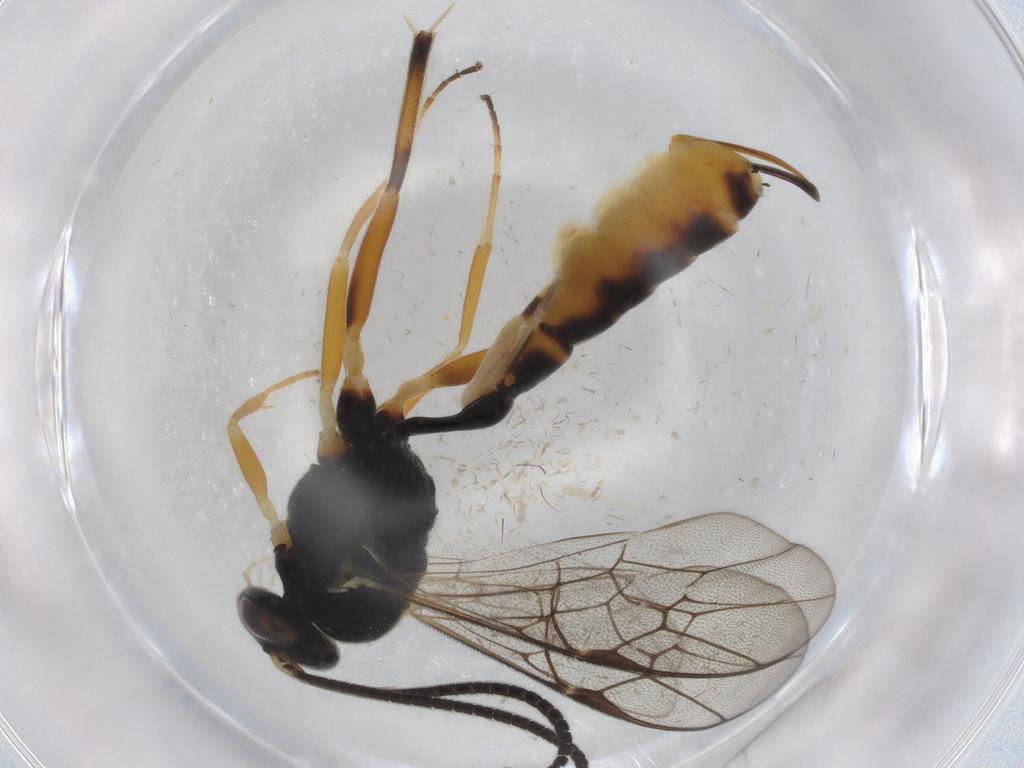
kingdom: Animalia
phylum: Arthropoda
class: Insecta
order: Hymenoptera
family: Ichneumonidae
